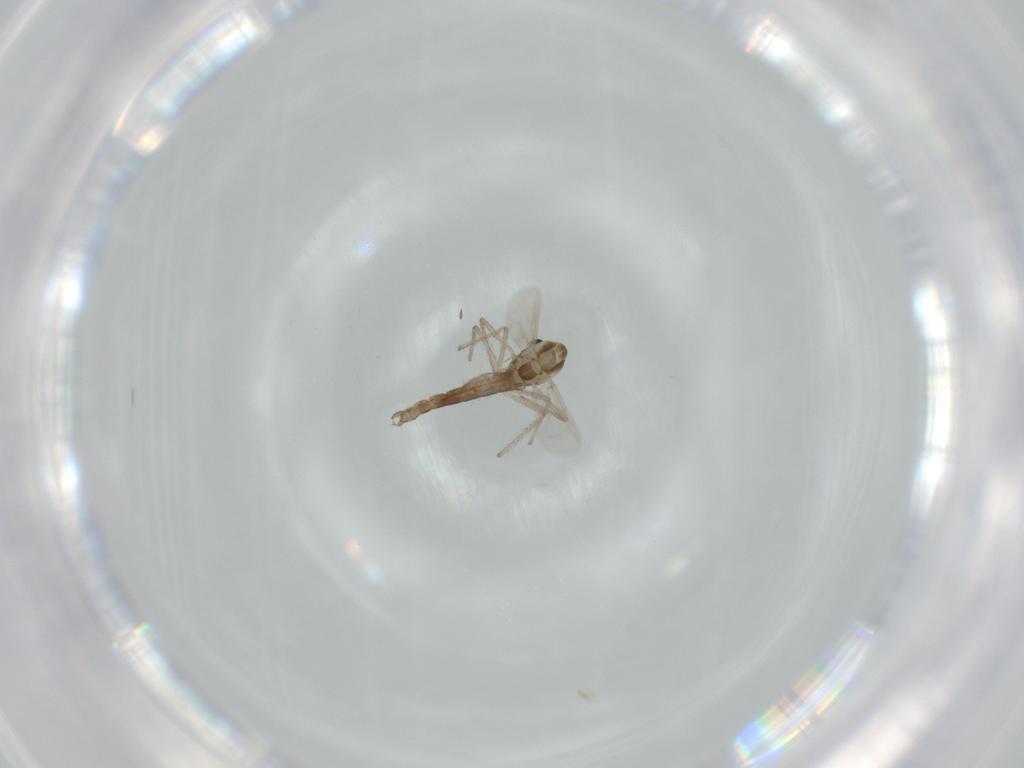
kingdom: Animalia
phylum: Arthropoda
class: Insecta
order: Diptera
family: Chironomidae
